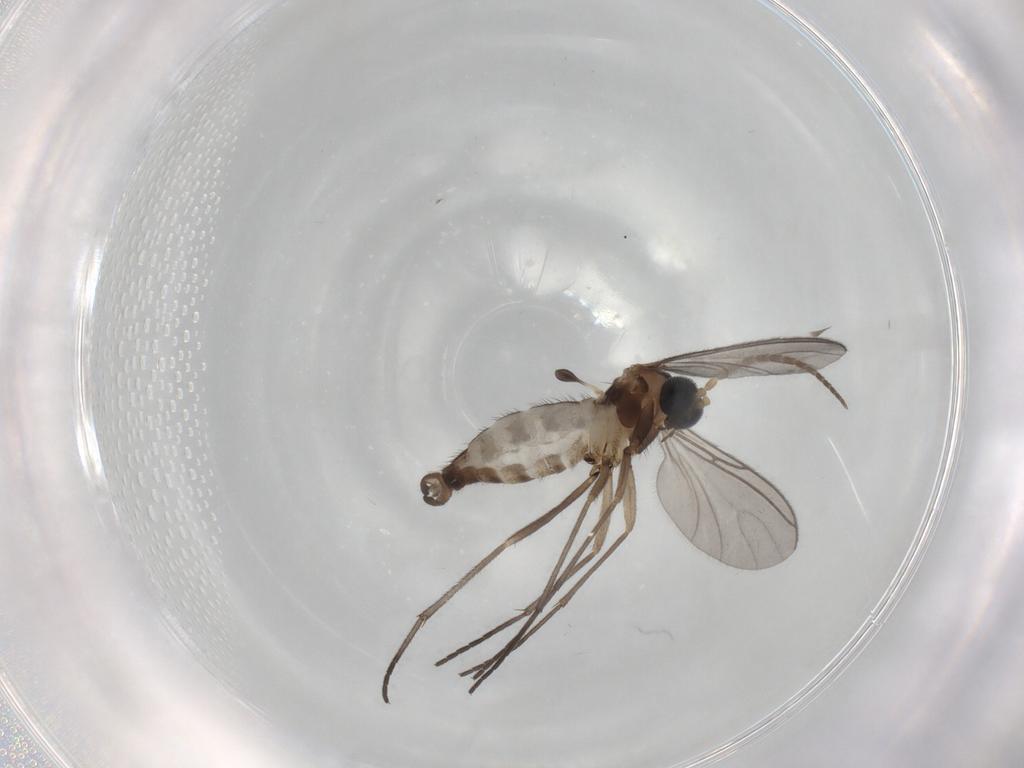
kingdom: Animalia
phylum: Arthropoda
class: Insecta
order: Diptera
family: Sciaridae
